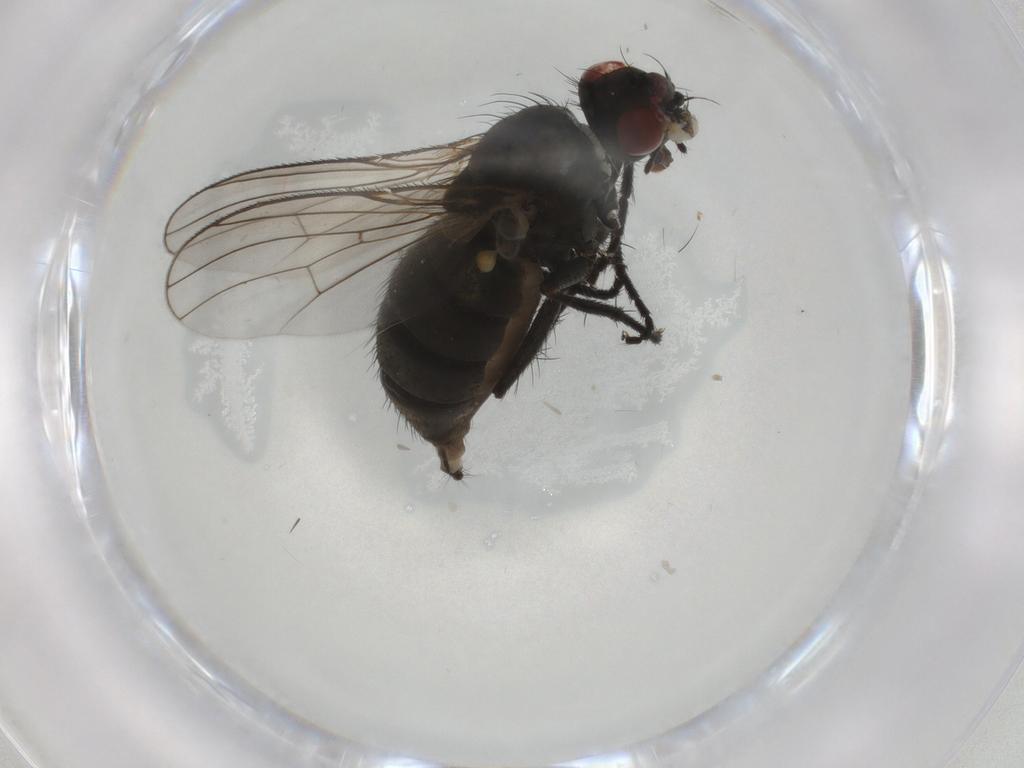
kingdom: Animalia
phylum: Arthropoda
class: Insecta
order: Diptera
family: Muscidae
